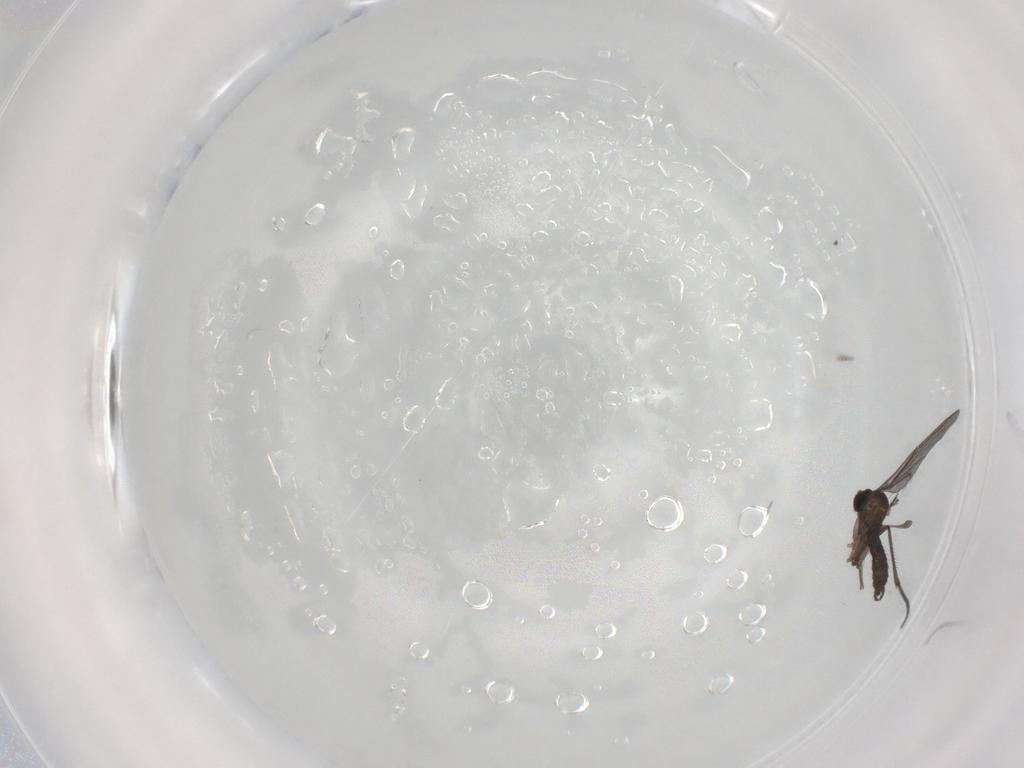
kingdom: Animalia
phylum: Arthropoda
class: Insecta
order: Diptera
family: Sciaridae
